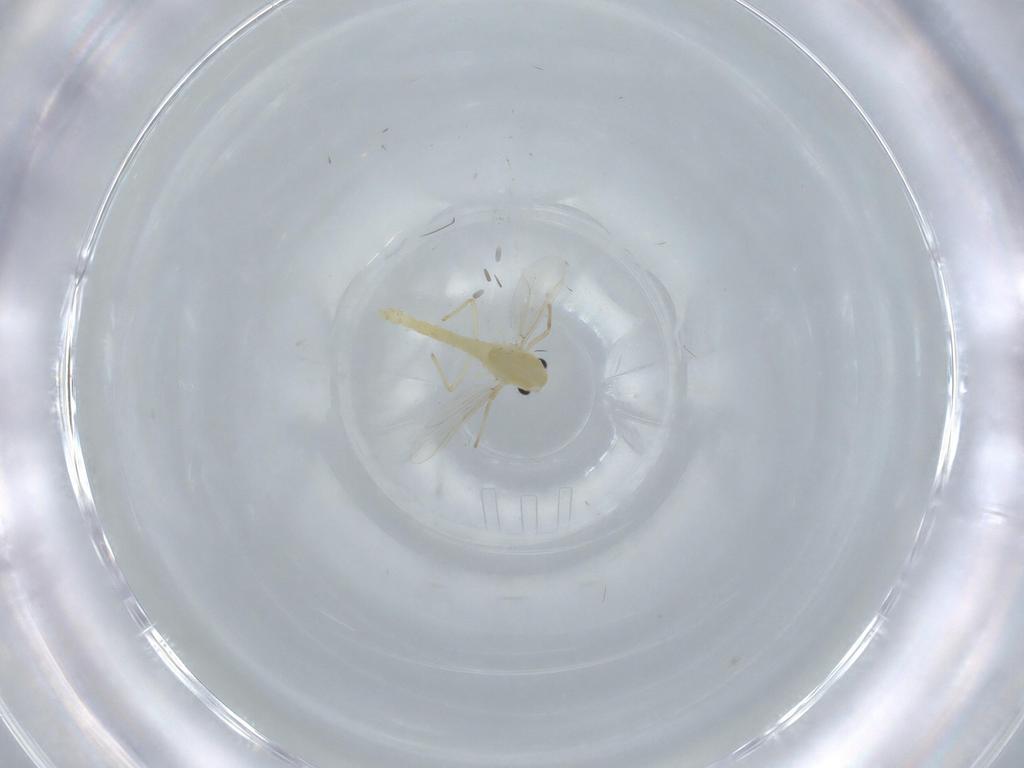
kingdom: Animalia
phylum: Arthropoda
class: Insecta
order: Diptera
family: Chironomidae
